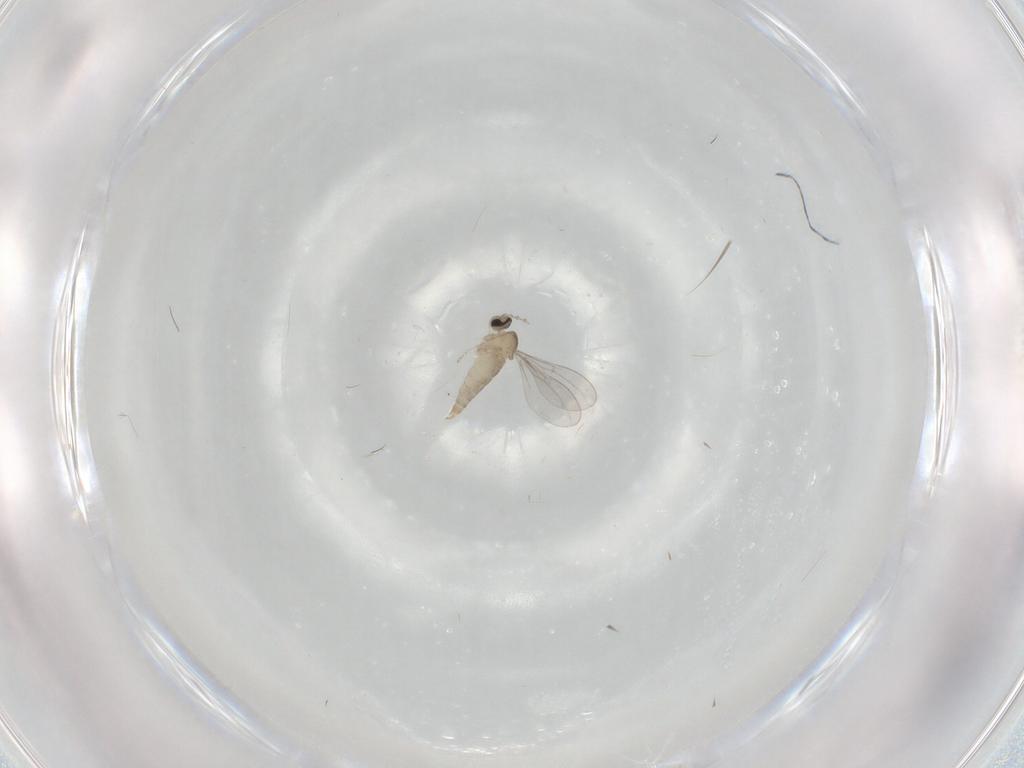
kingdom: Animalia
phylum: Arthropoda
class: Insecta
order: Diptera
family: Cecidomyiidae
